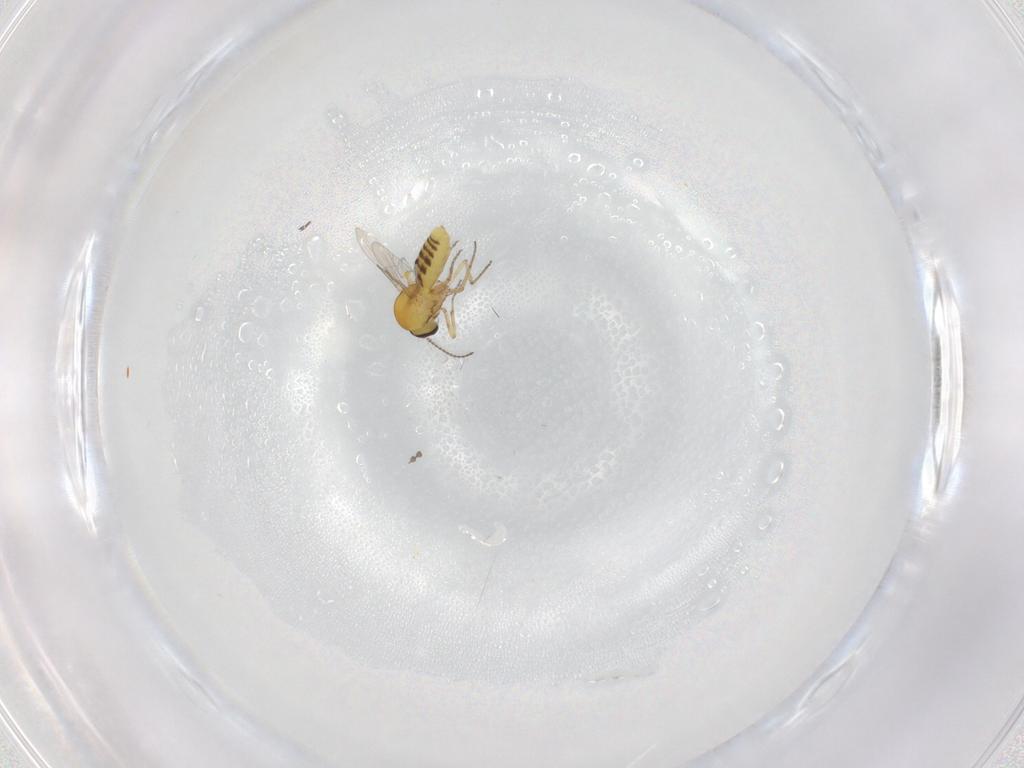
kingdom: Animalia
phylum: Arthropoda
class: Insecta
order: Diptera
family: Ceratopogonidae
